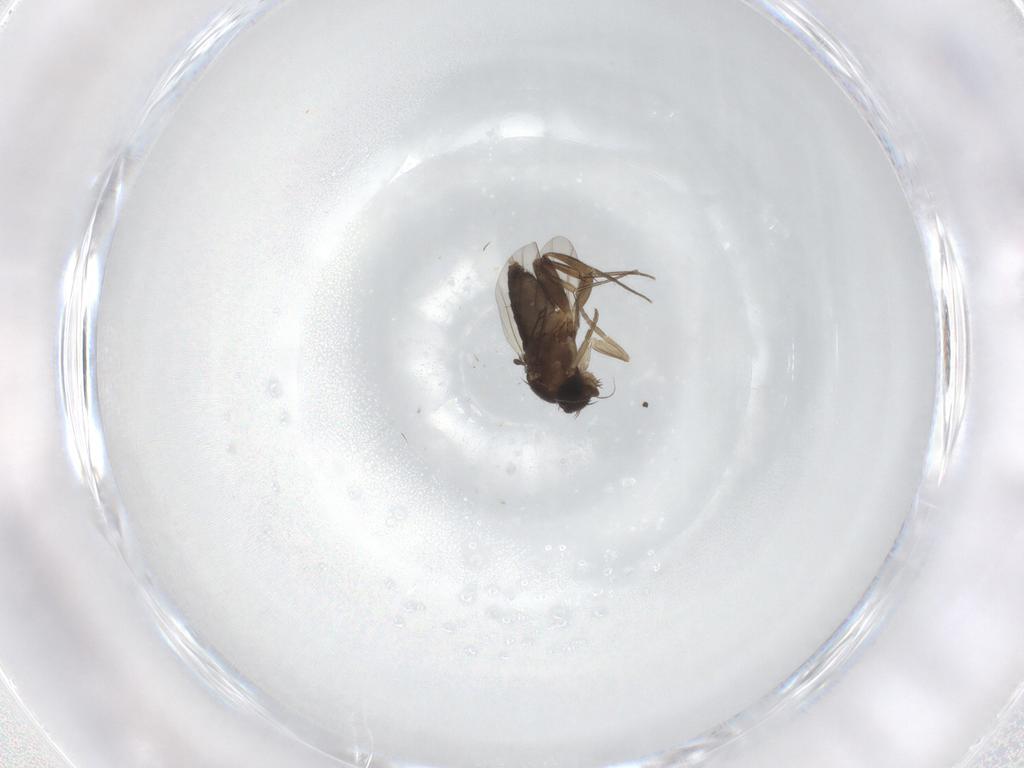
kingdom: Animalia
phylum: Arthropoda
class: Insecta
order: Diptera
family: Phoridae
